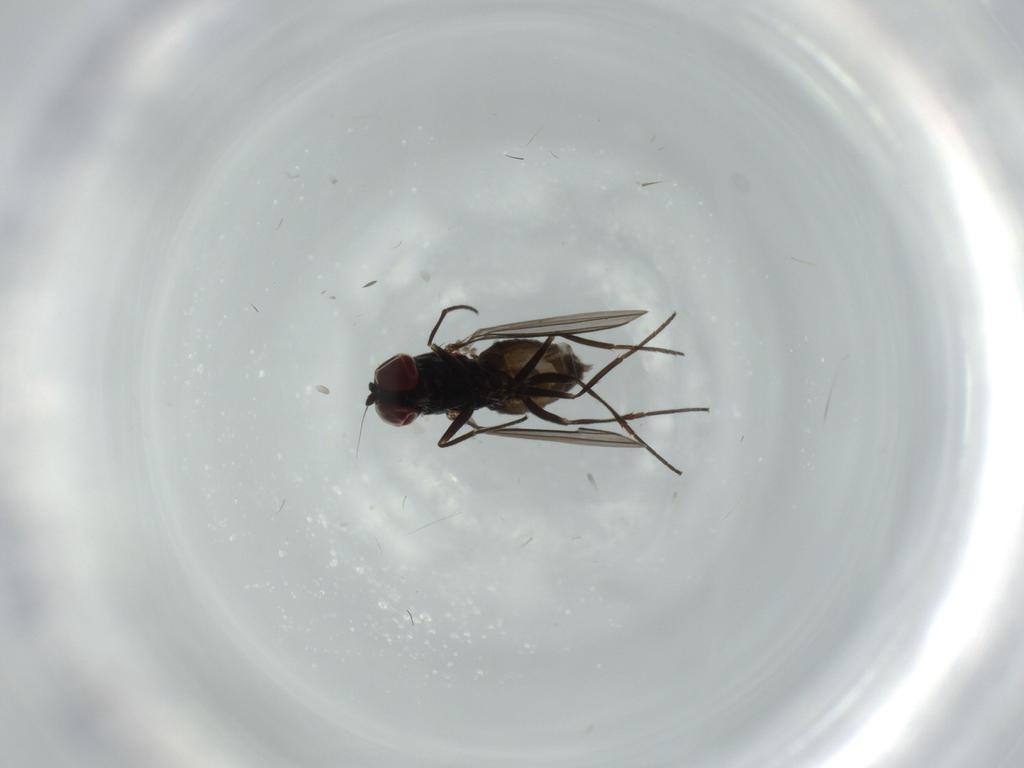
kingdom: Animalia
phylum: Arthropoda
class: Insecta
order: Diptera
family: Dolichopodidae
